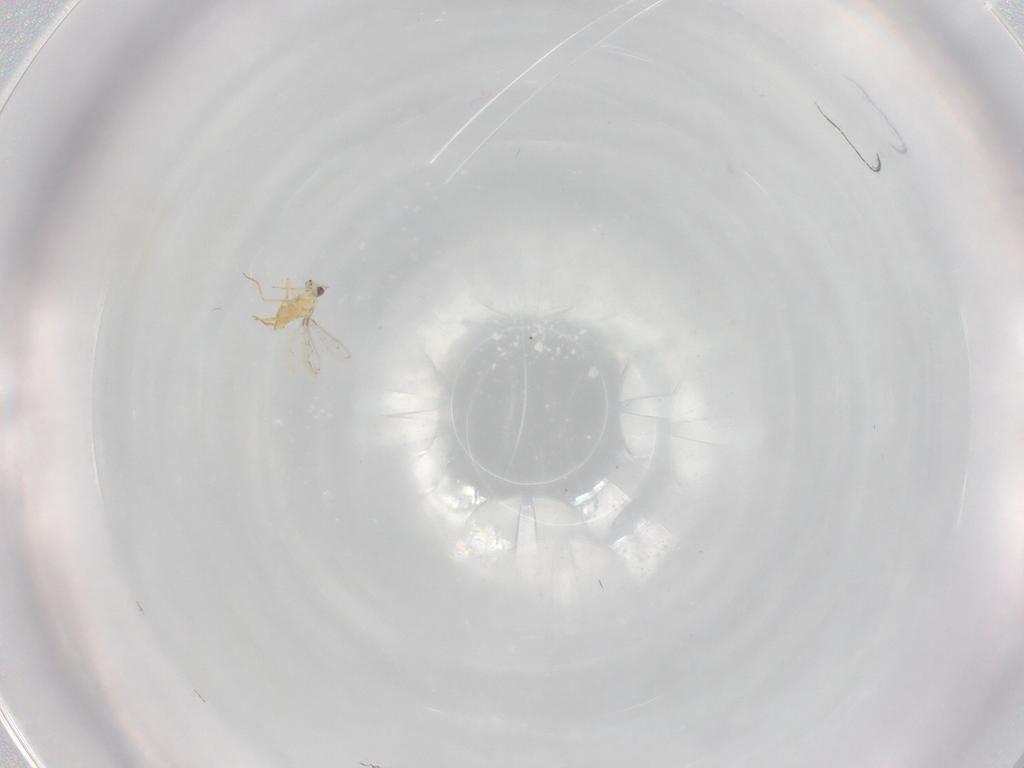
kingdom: Animalia
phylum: Arthropoda
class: Insecta
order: Hymenoptera
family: Mymaridae
